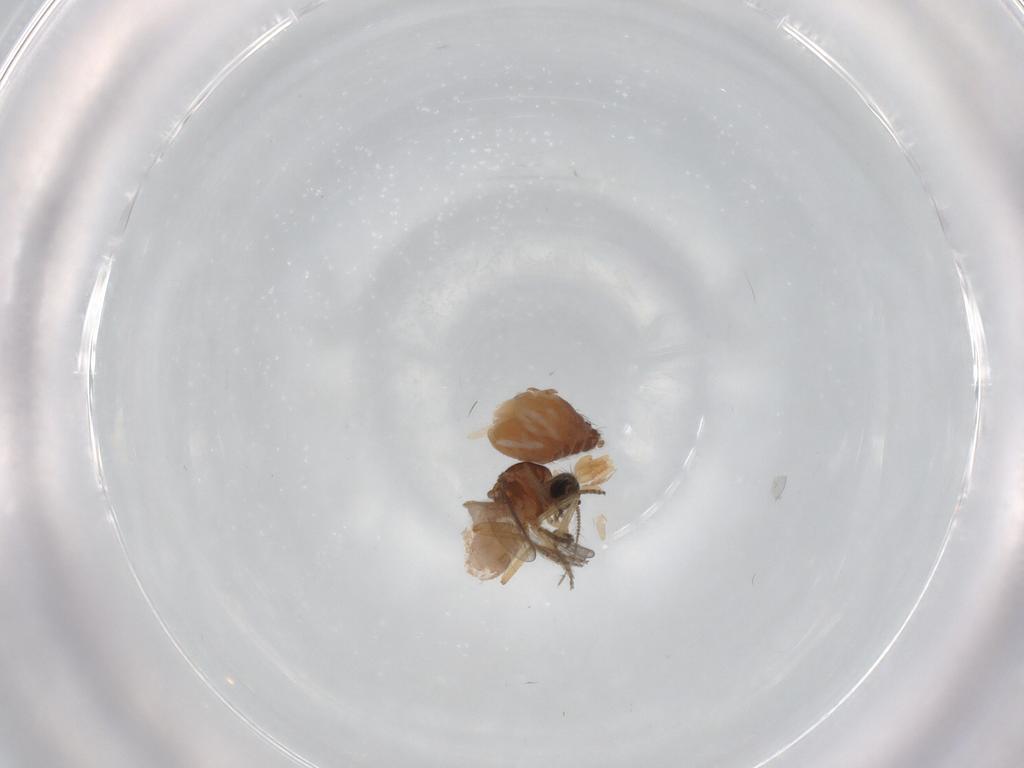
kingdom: Animalia
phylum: Arthropoda
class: Insecta
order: Diptera
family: Ceratopogonidae
